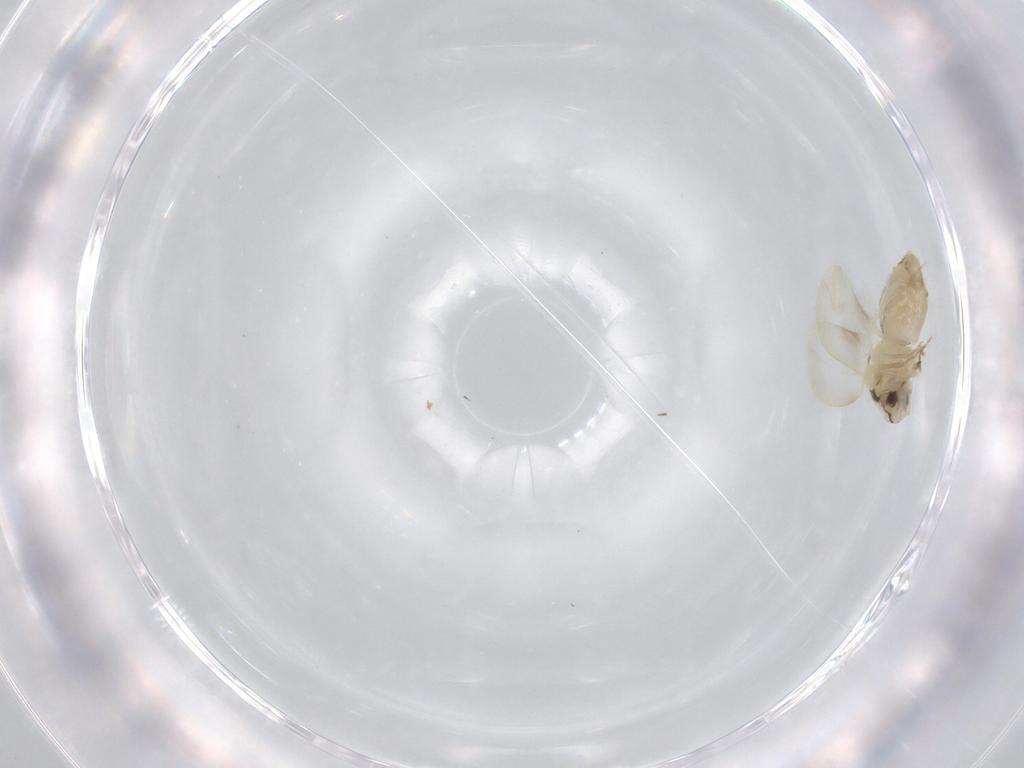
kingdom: Animalia
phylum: Arthropoda
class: Insecta
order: Hemiptera
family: Aleyrodidae
